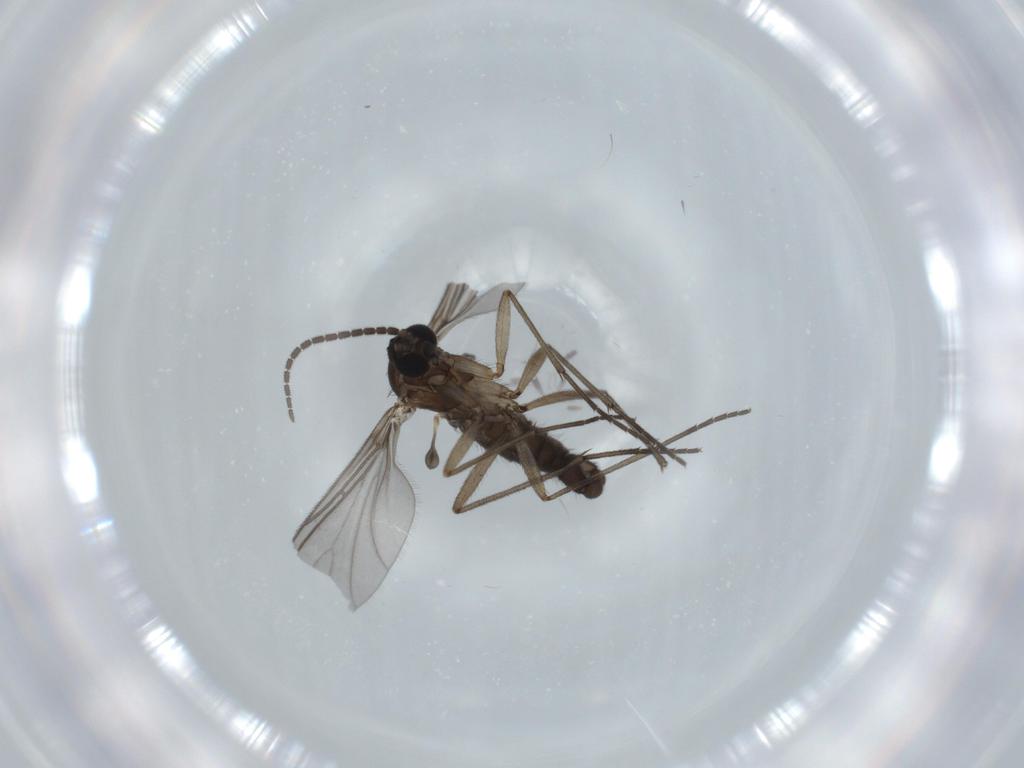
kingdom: Animalia
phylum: Arthropoda
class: Insecta
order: Diptera
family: Sciaridae
